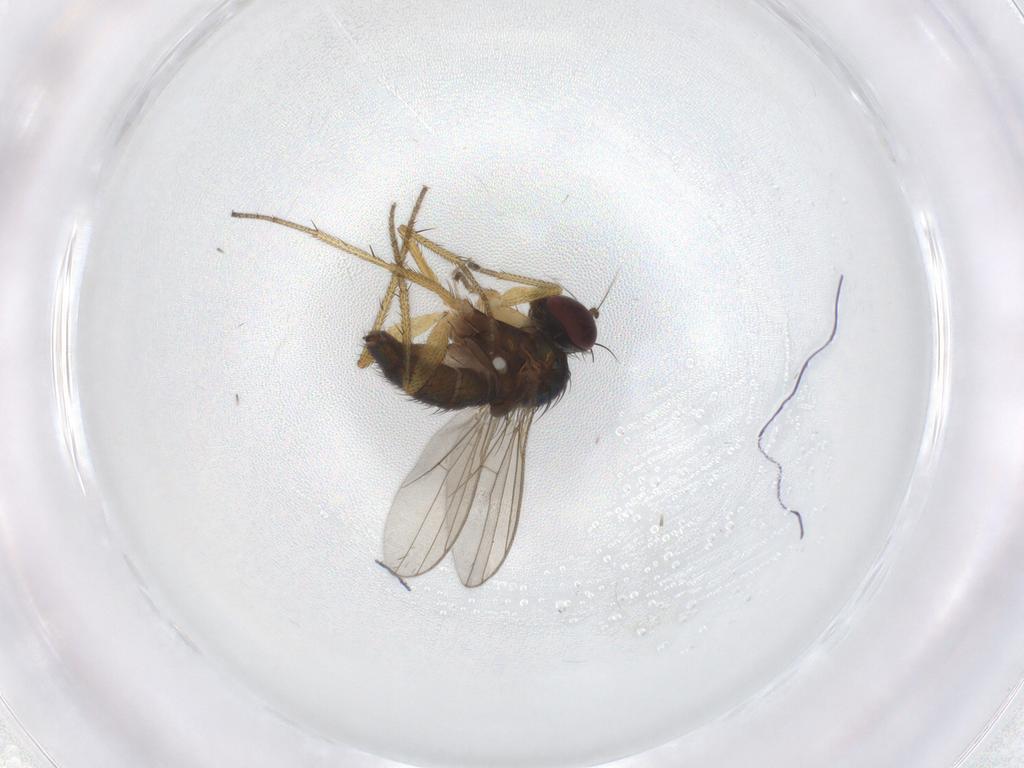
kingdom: Animalia
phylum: Arthropoda
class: Insecta
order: Diptera
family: Dolichopodidae
